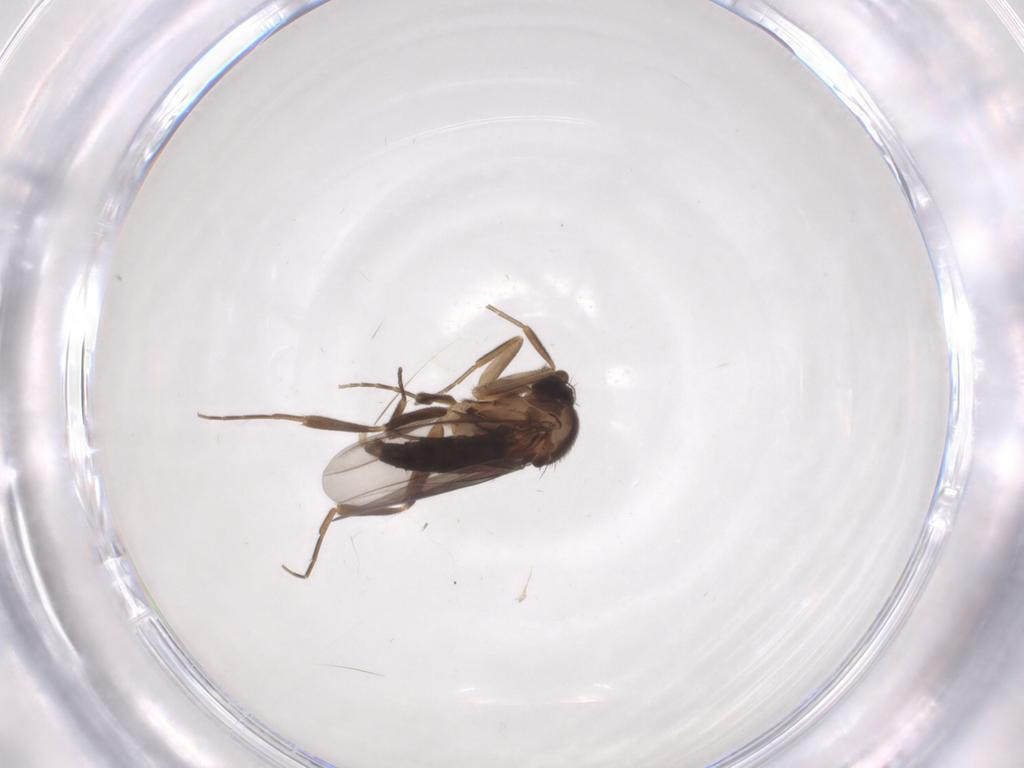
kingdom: Animalia
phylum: Arthropoda
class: Insecta
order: Diptera
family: Phoridae
